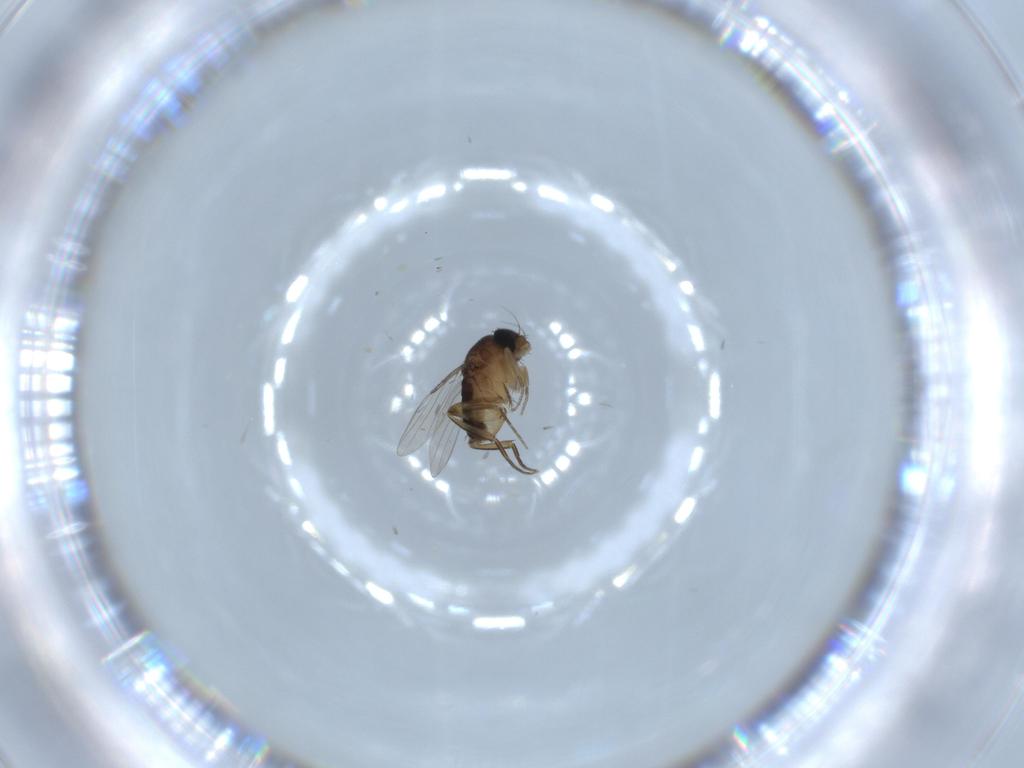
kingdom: Animalia
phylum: Arthropoda
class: Insecta
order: Diptera
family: Phoridae
